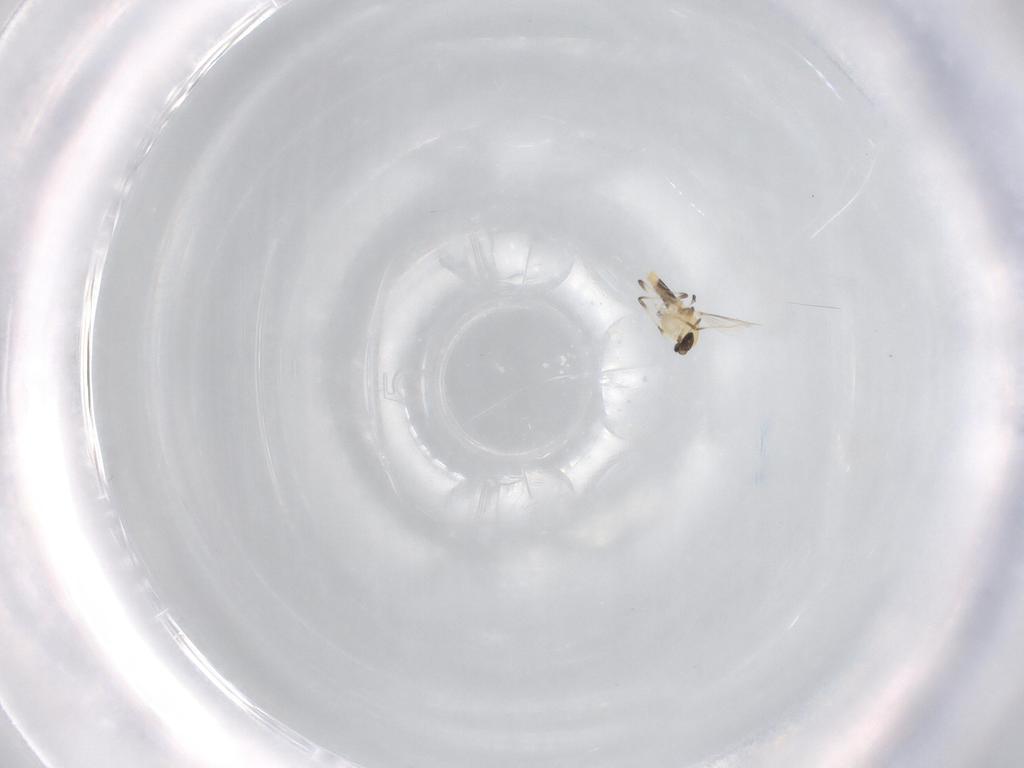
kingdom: Animalia
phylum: Arthropoda
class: Insecta
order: Diptera
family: Chironomidae
